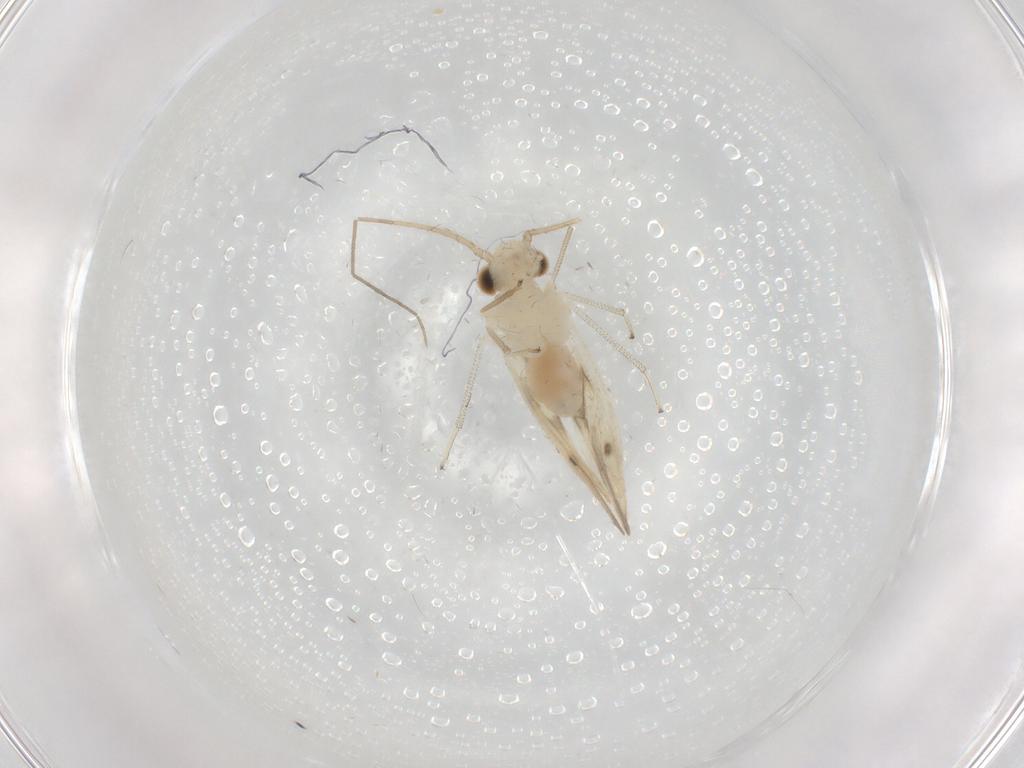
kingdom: Animalia
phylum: Arthropoda
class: Insecta
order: Psocodea
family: Caeciliusidae
